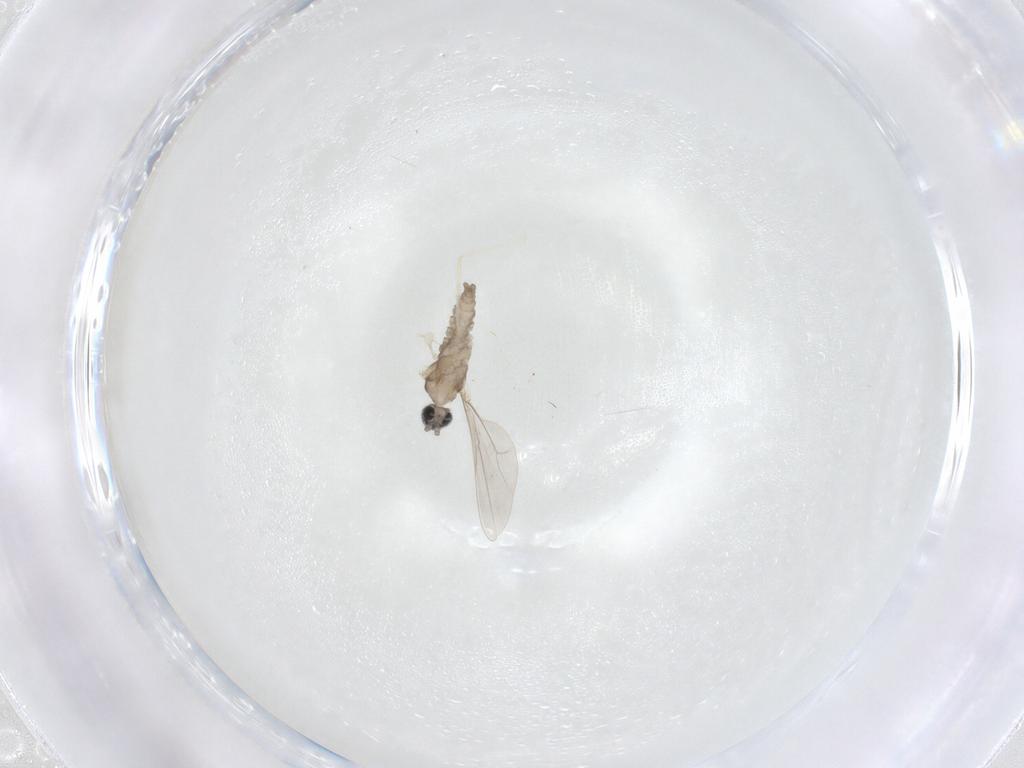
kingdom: Animalia
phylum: Arthropoda
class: Insecta
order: Diptera
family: Cecidomyiidae
